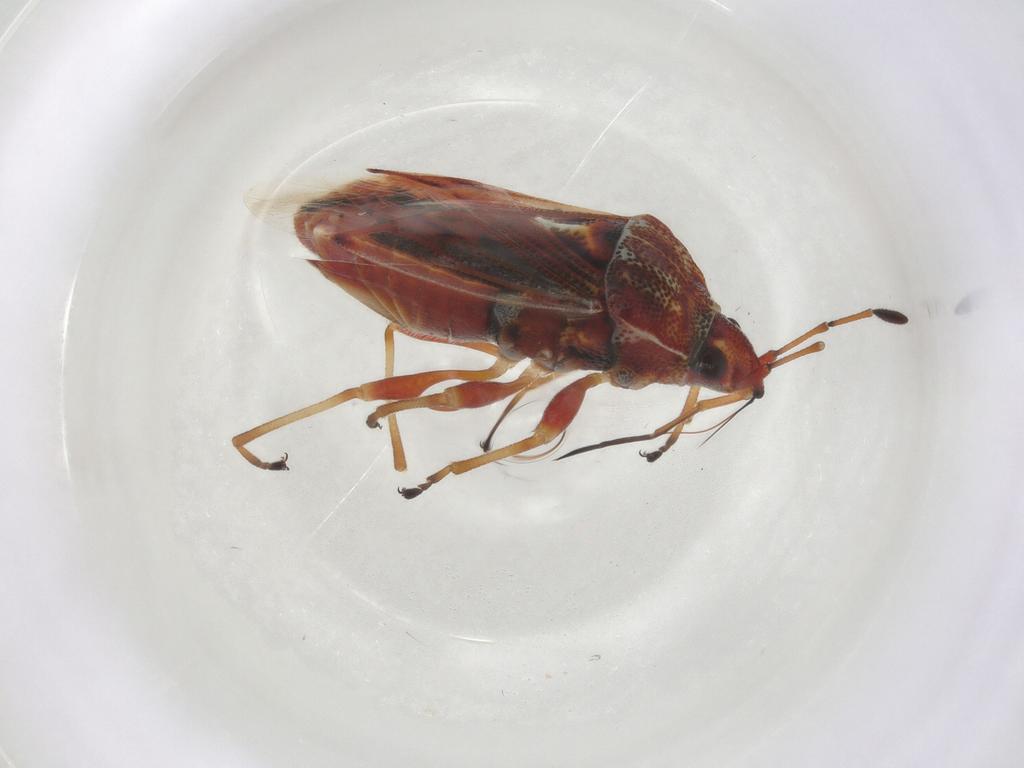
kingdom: Animalia
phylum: Arthropoda
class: Insecta
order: Hemiptera
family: Lygaeidae
